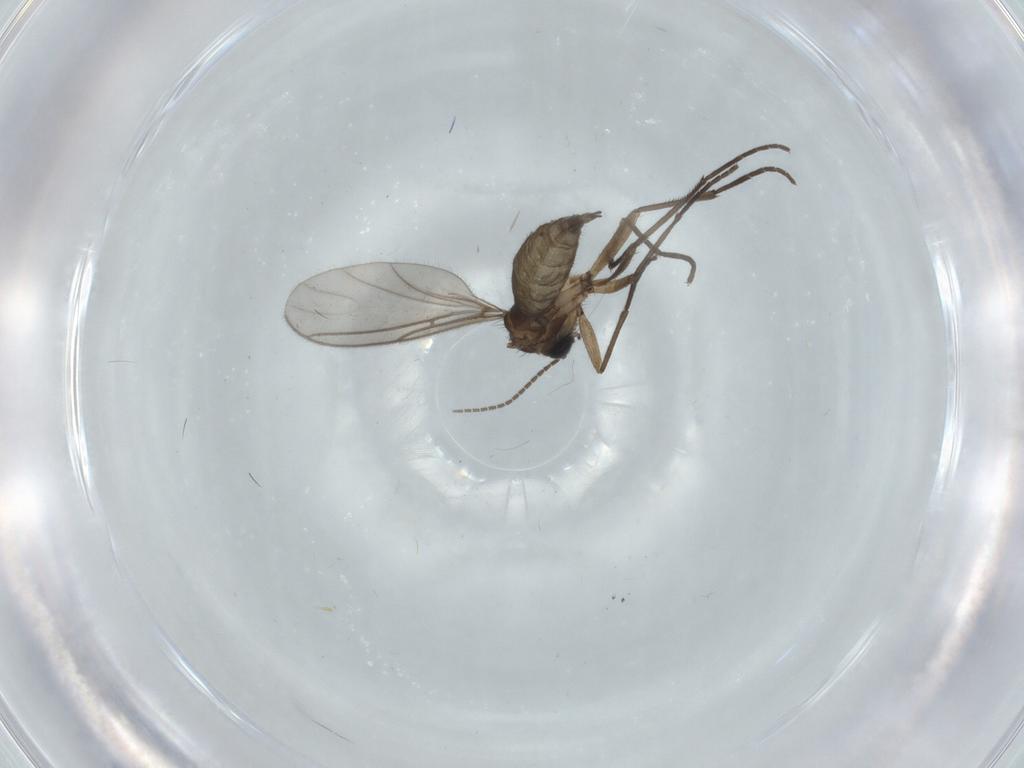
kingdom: Animalia
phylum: Arthropoda
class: Insecta
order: Diptera
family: Sciaridae
